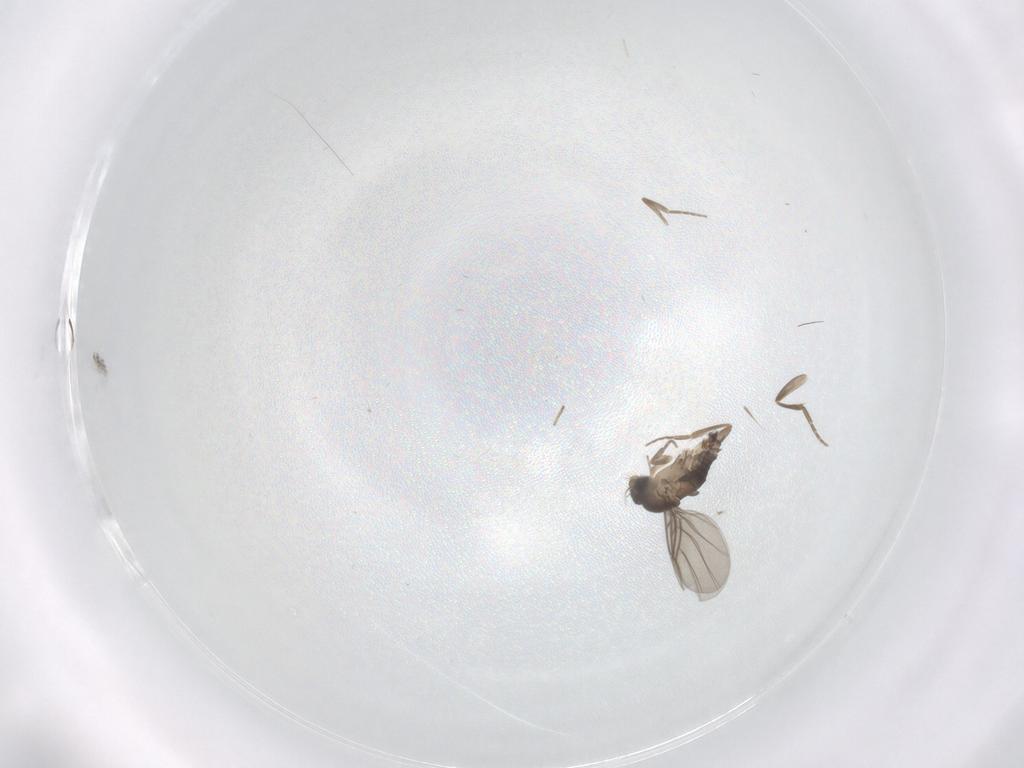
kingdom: Animalia
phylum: Arthropoda
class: Insecta
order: Diptera
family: Phoridae
